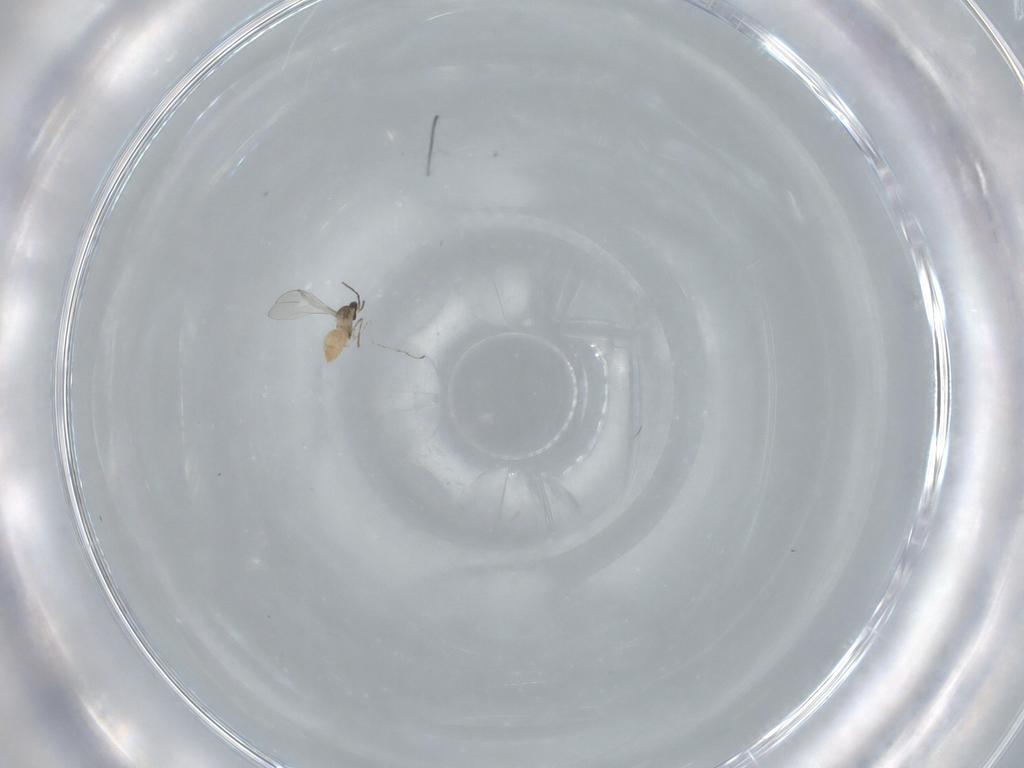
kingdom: Animalia
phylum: Arthropoda
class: Insecta
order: Diptera
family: Cecidomyiidae
